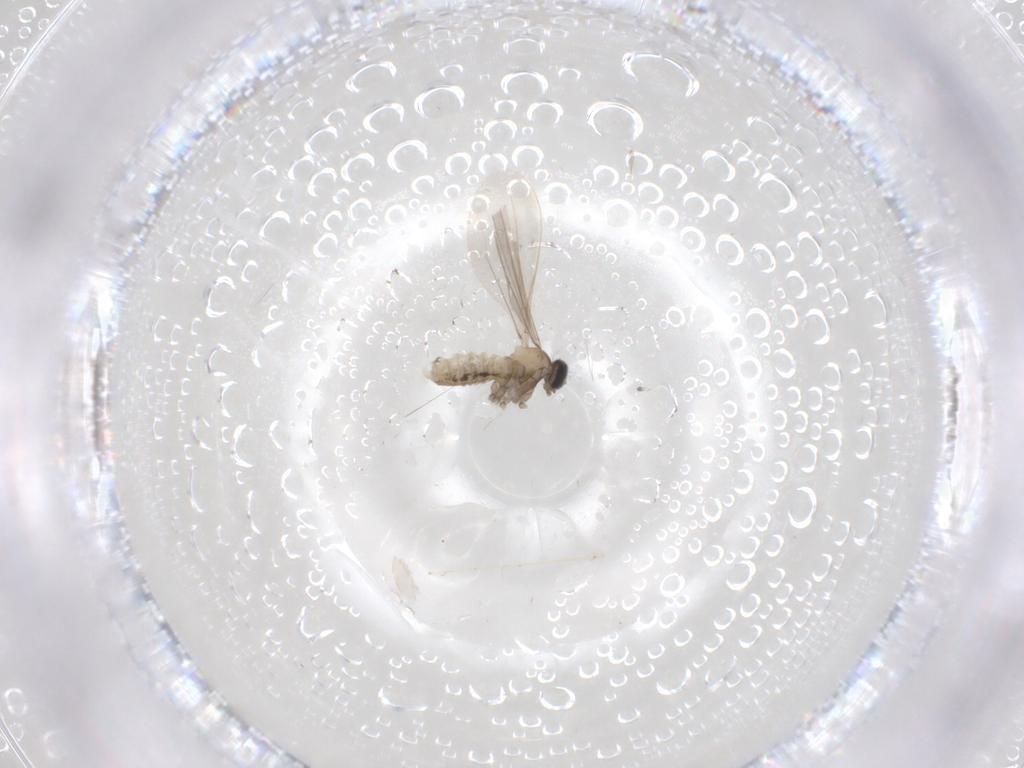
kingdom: Animalia
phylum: Arthropoda
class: Insecta
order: Diptera
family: Cecidomyiidae
